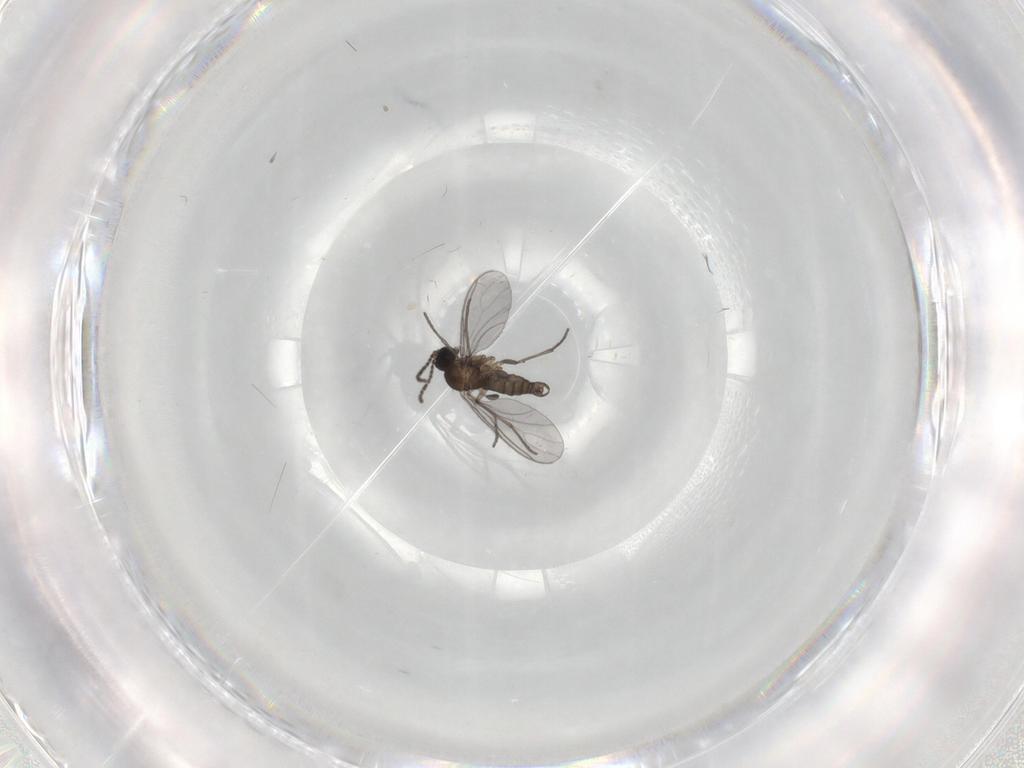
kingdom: Animalia
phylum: Arthropoda
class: Insecta
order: Diptera
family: Sciaridae
